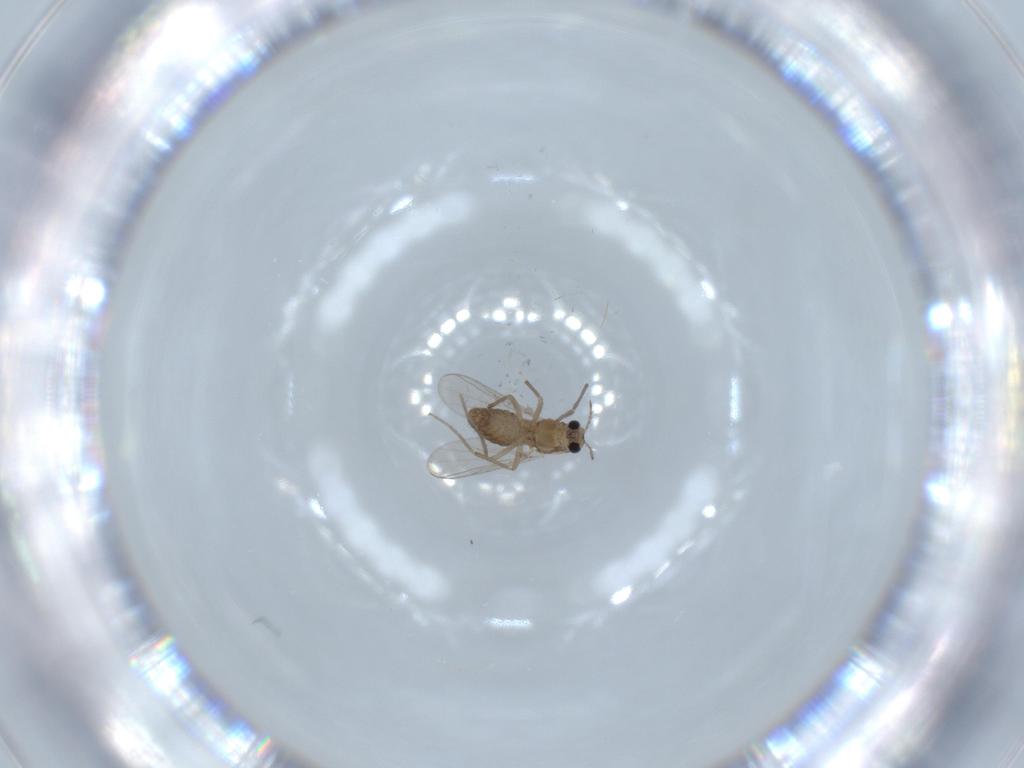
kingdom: Animalia
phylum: Arthropoda
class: Insecta
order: Diptera
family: Chironomidae
